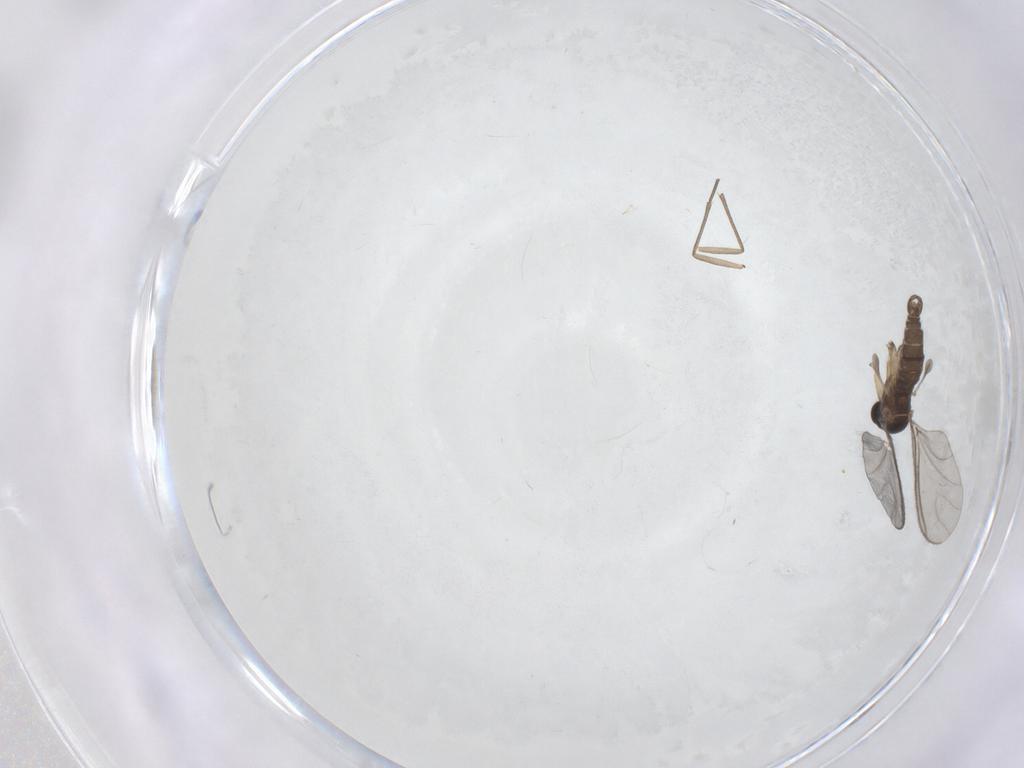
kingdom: Animalia
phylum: Arthropoda
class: Insecta
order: Diptera
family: Sciaridae
